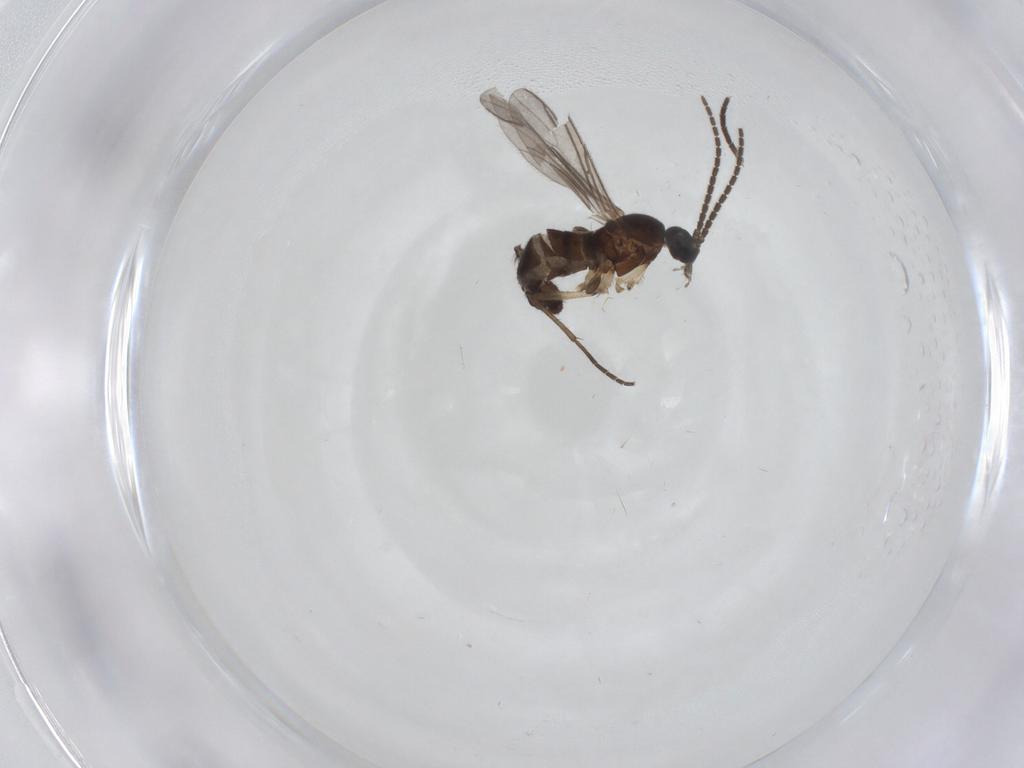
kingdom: Animalia
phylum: Arthropoda
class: Insecta
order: Diptera
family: Sciaridae
